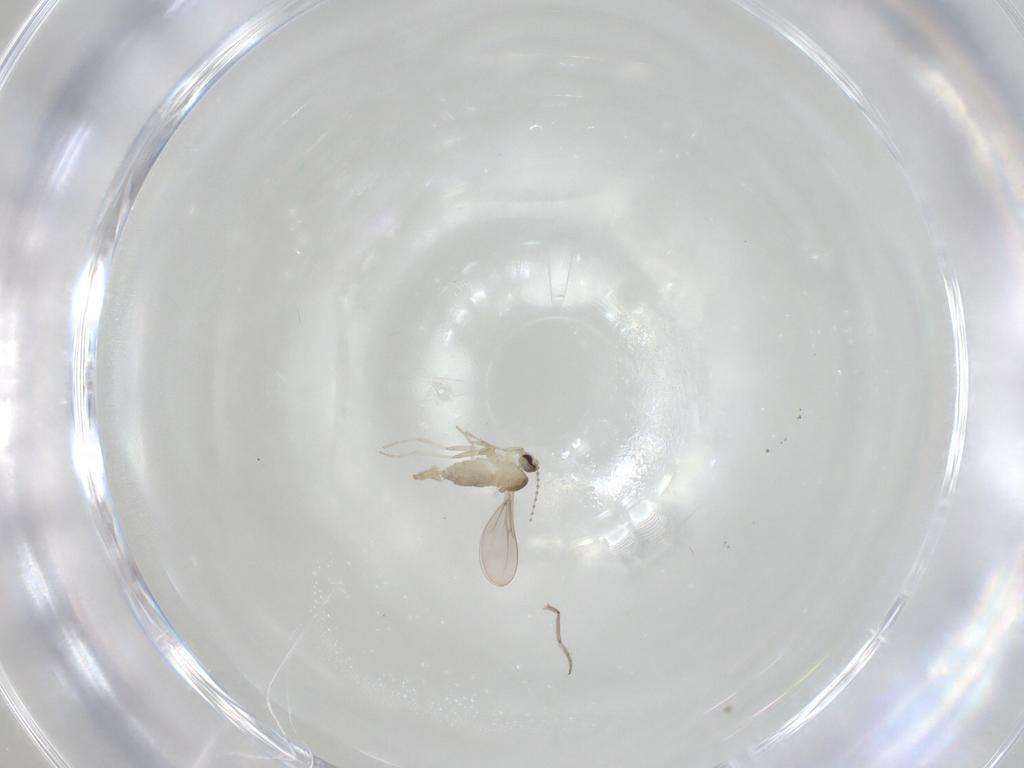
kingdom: Animalia
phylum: Arthropoda
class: Insecta
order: Diptera
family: Cecidomyiidae
